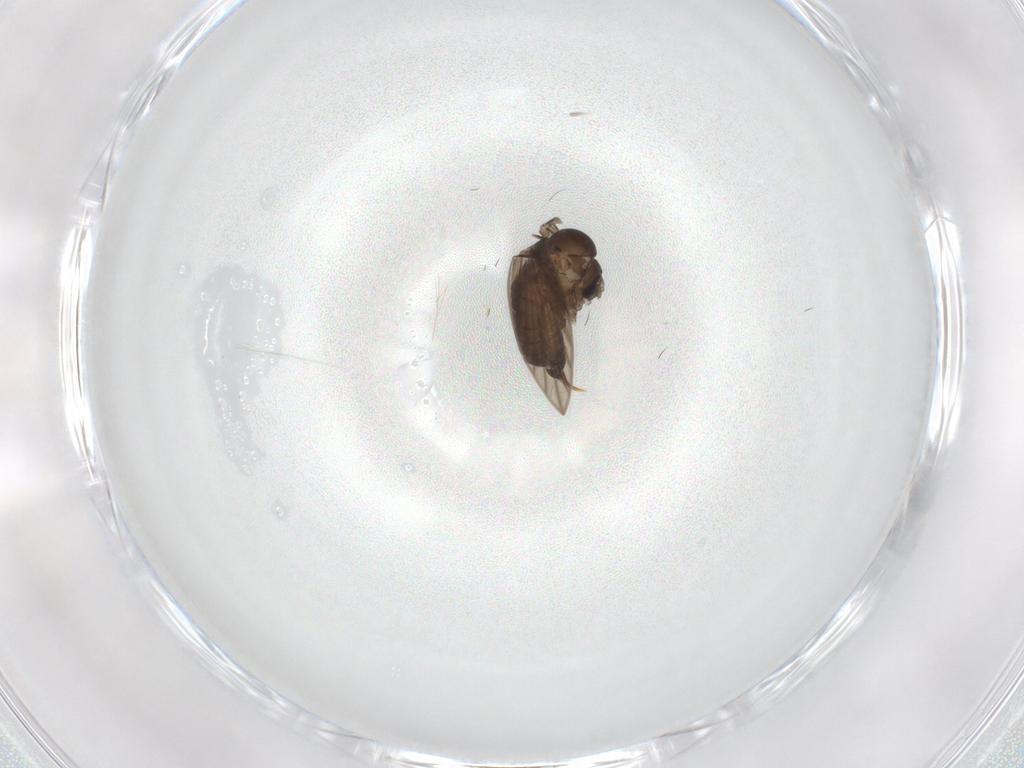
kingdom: Animalia
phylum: Arthropoda
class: Insecta
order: Diptera
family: Psychodidae
